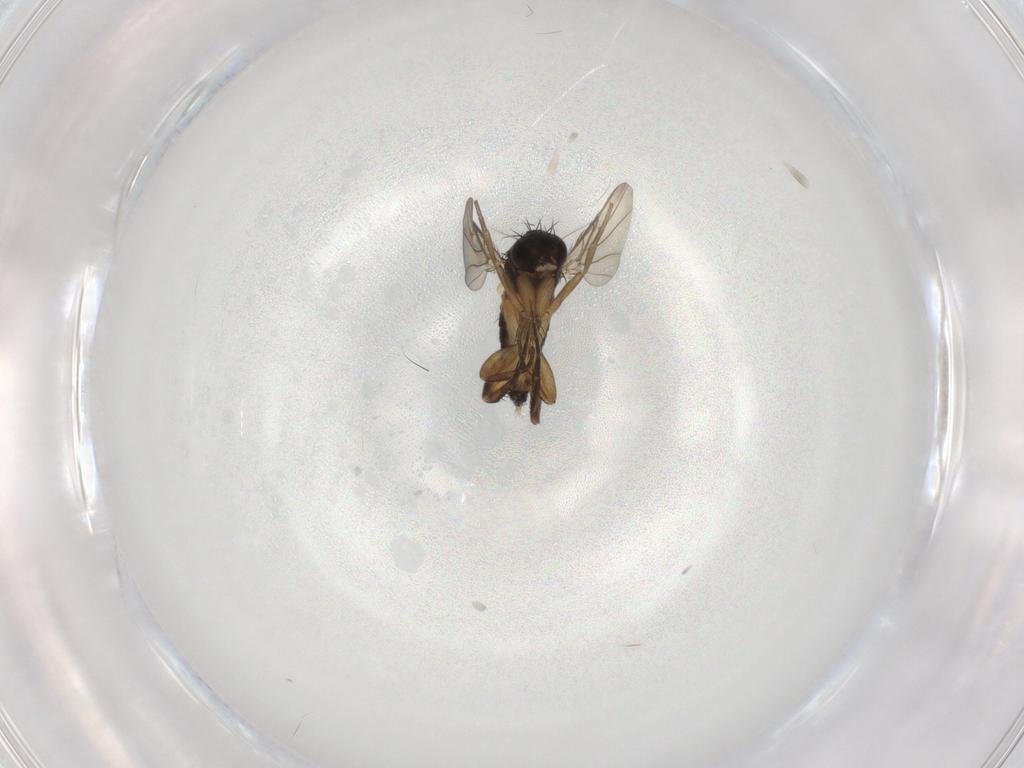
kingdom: Animalia
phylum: Arthropoda
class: Insecta
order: Diptera
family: Phoridae
